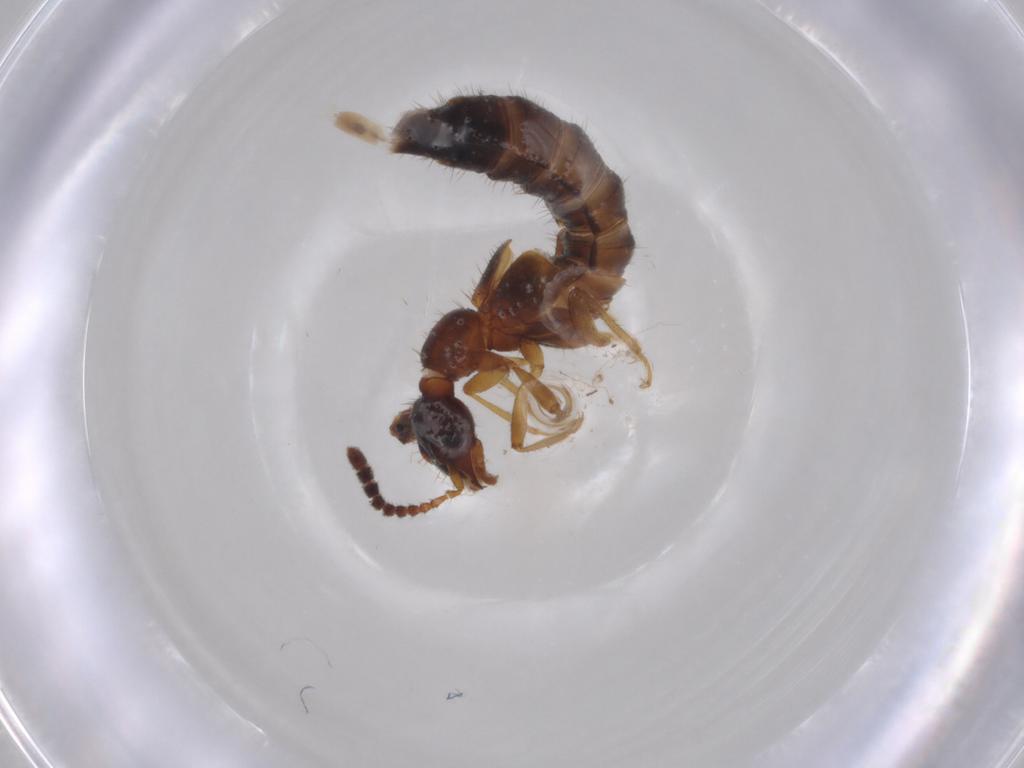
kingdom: Animalia
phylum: Arthropoda
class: Insecta
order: Coleoptera
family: Staphylinidae
